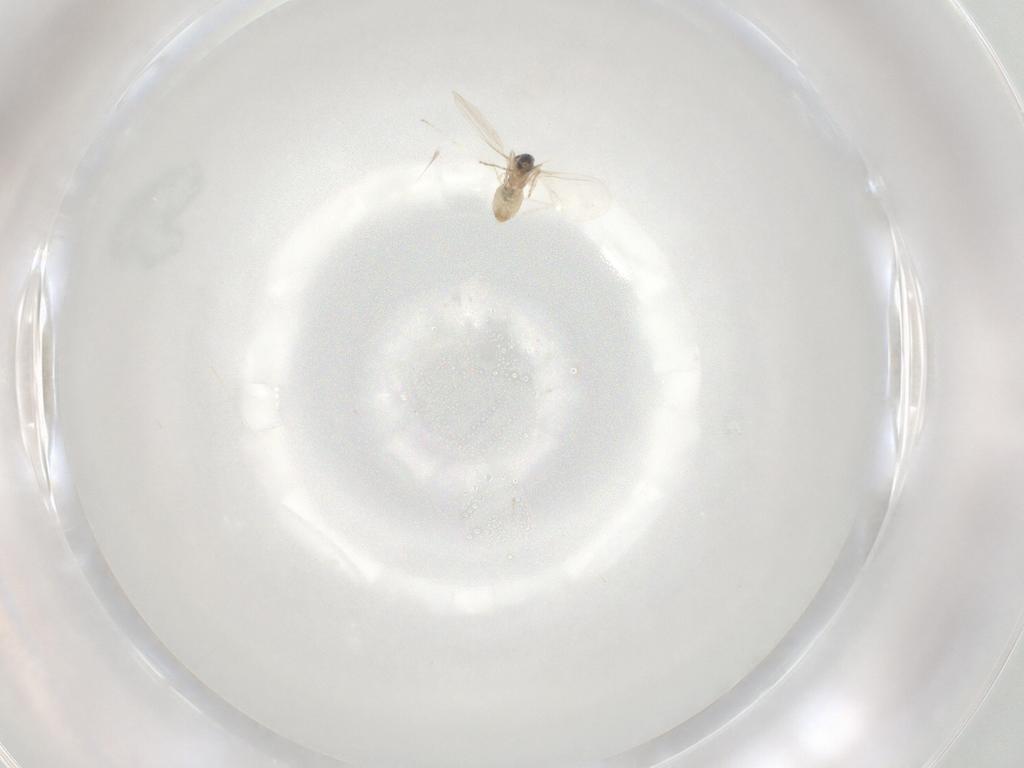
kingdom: Animalia
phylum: Arthropoda
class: Insecta
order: Diptera
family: Cecidomyiidae
